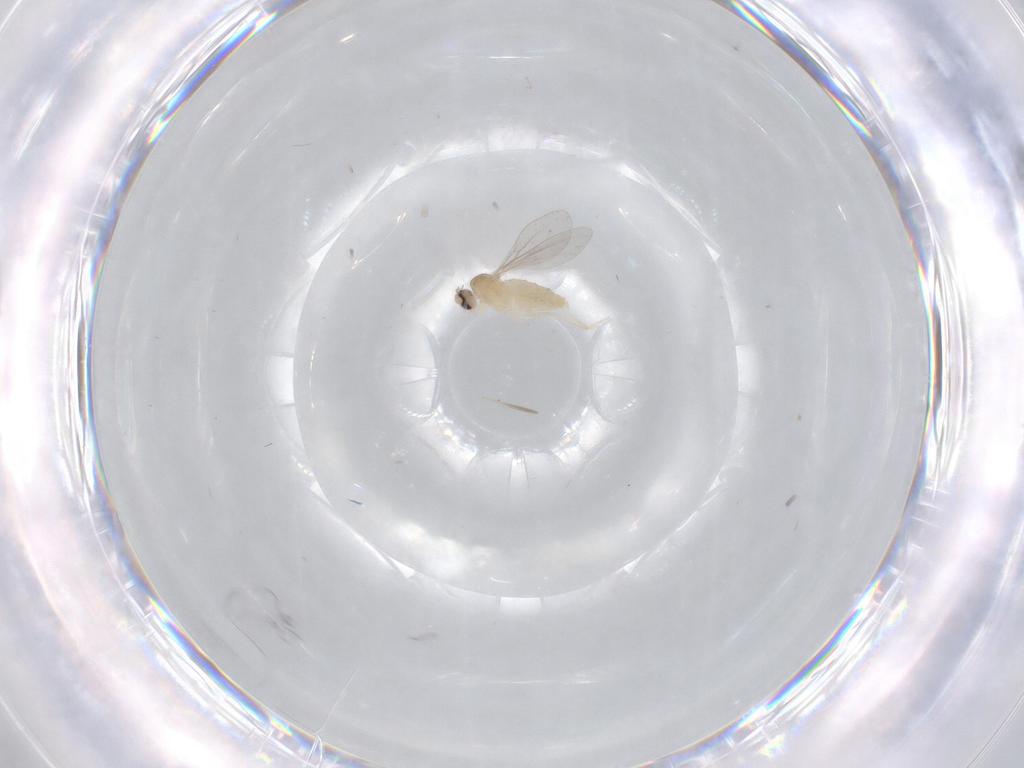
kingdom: Animalia
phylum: Arthropoda
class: Insecta
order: Diptera
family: Cecidomyiidae
